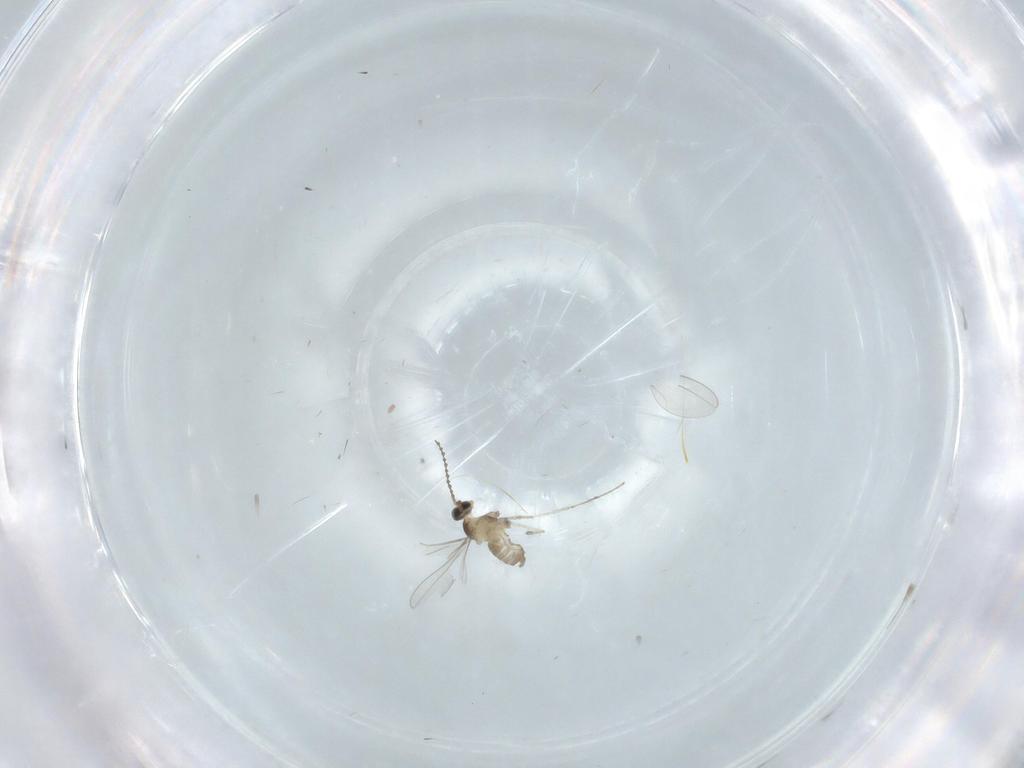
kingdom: Animalia
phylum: Arthropoda
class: Insecta
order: Diptera
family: Cecidomyiidae
